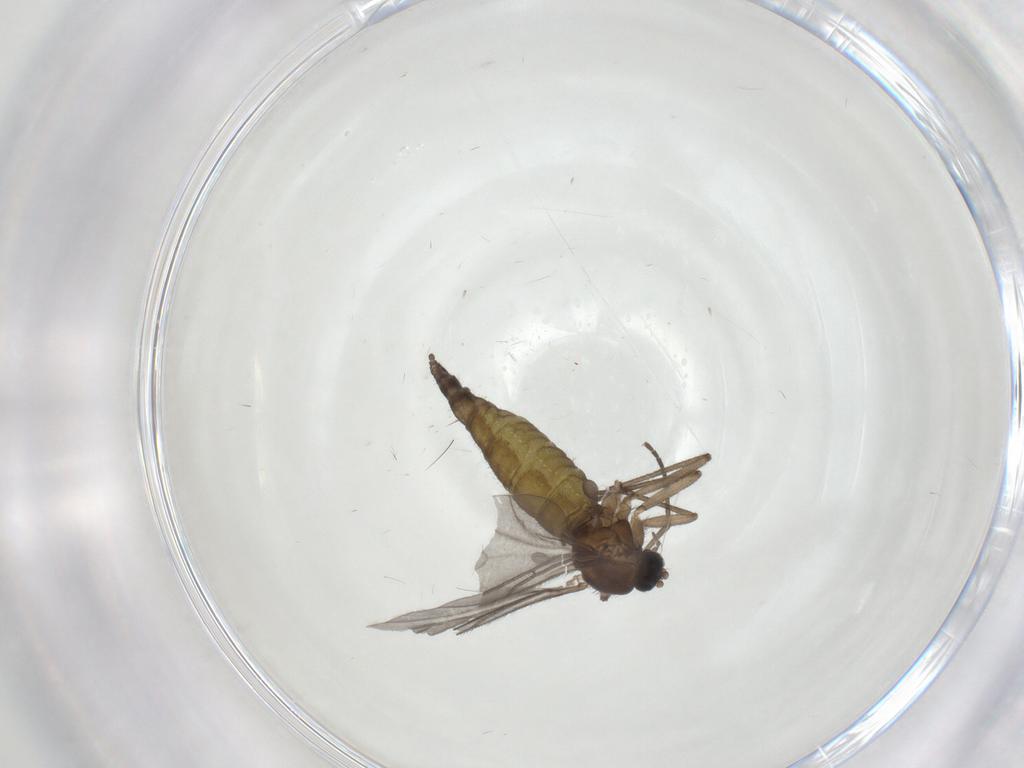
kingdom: Animalia
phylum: Arthropoda
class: Insecta
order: Diptera
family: Sciaridae
